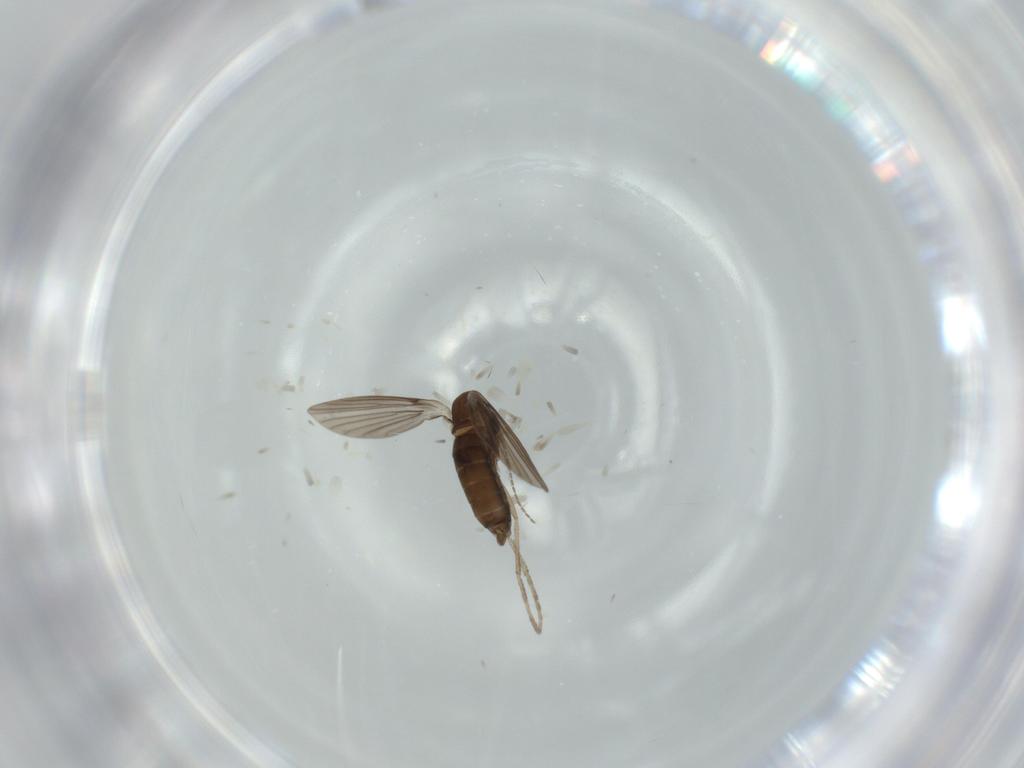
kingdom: Animalia
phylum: Arthropoda
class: Insecta
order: Diptera
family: Psychodidae
